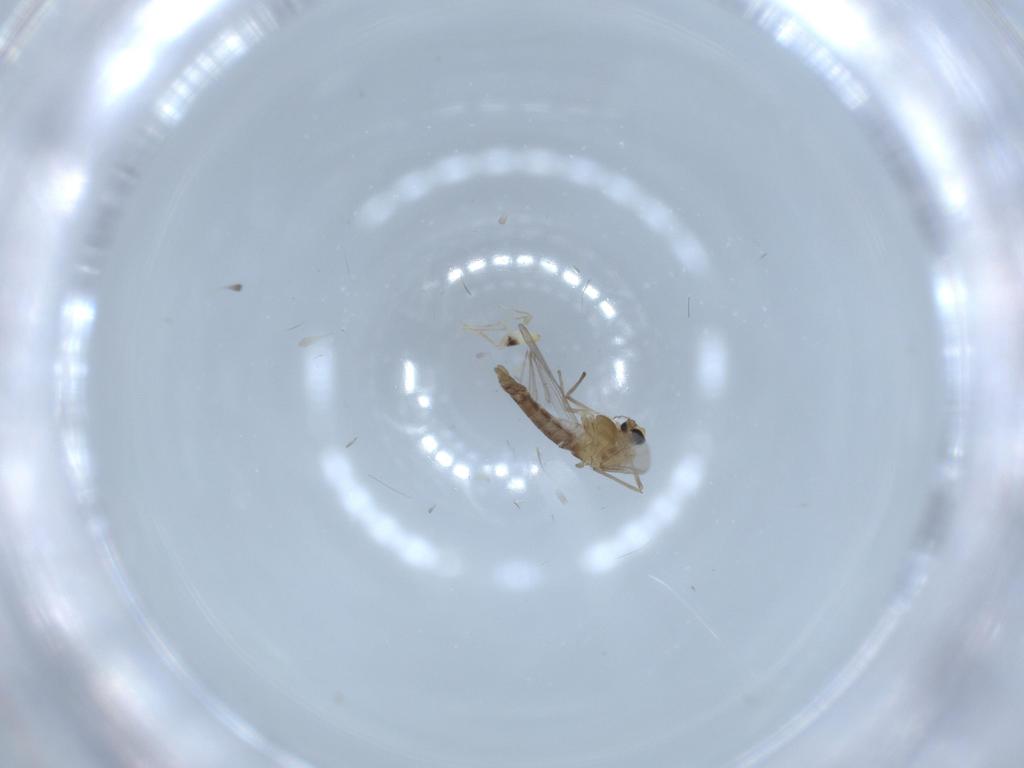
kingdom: Animalia
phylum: Arthropoda
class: Insecta
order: Diptera
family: Chironomidae
